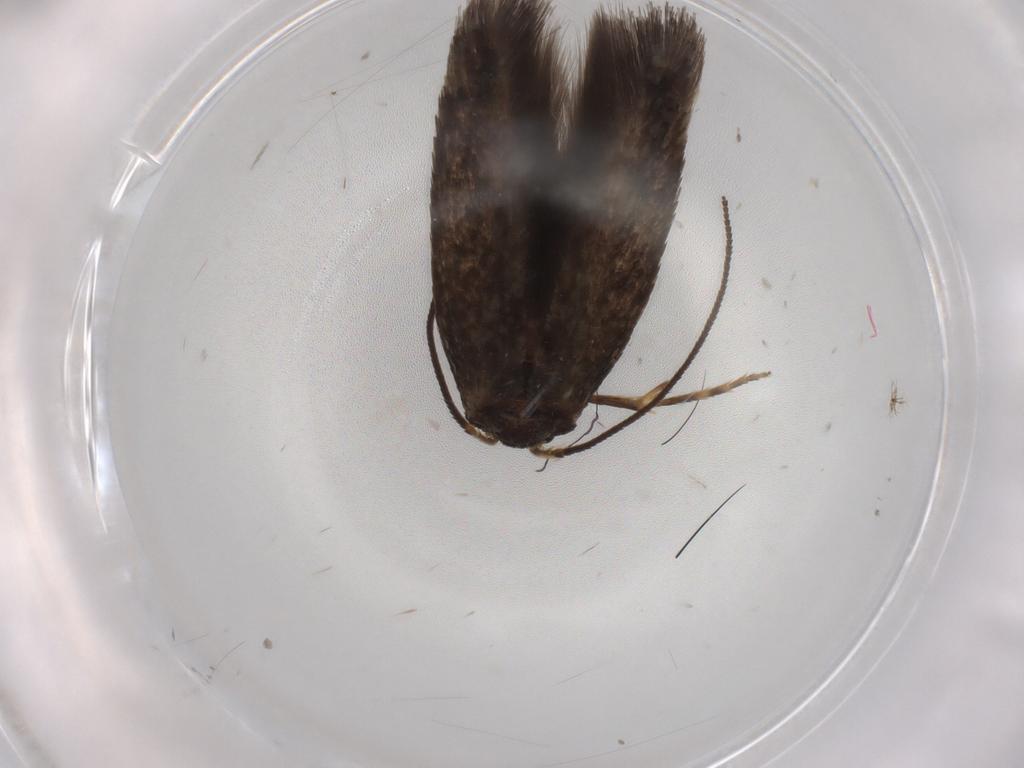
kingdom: Animalia
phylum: Arthropoda
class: Insecta
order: Lepidoptera
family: Nepticulidae
